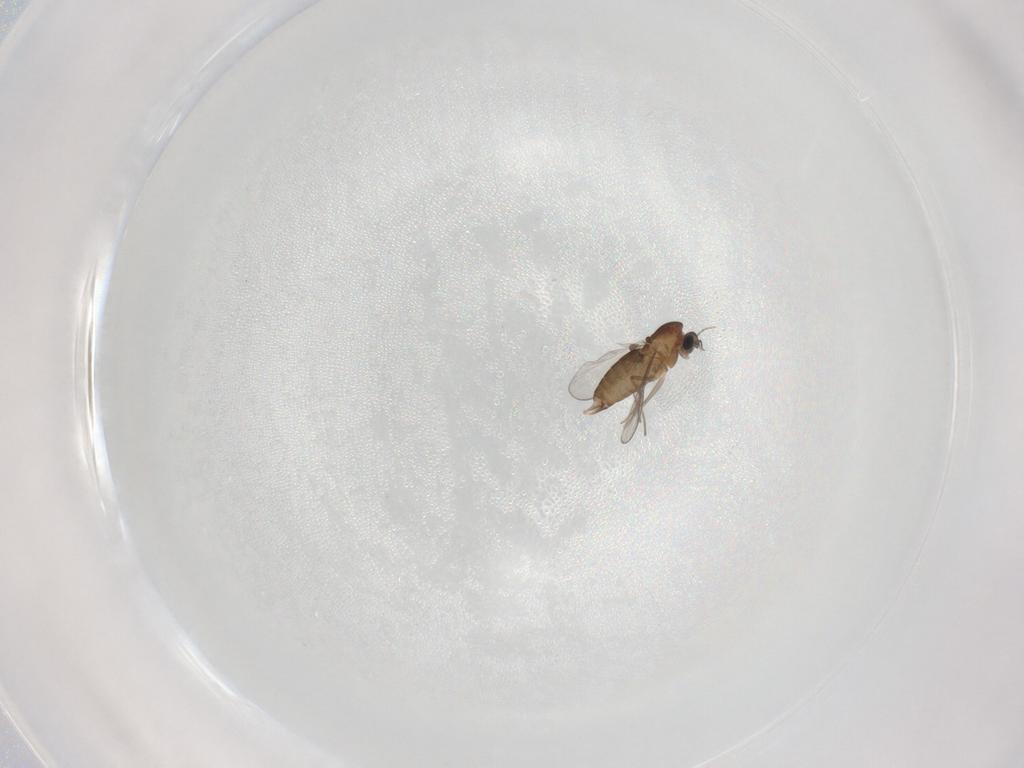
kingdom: Animalia
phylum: Arthropoda
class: Insecta
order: Diptera
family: Chironomidae
